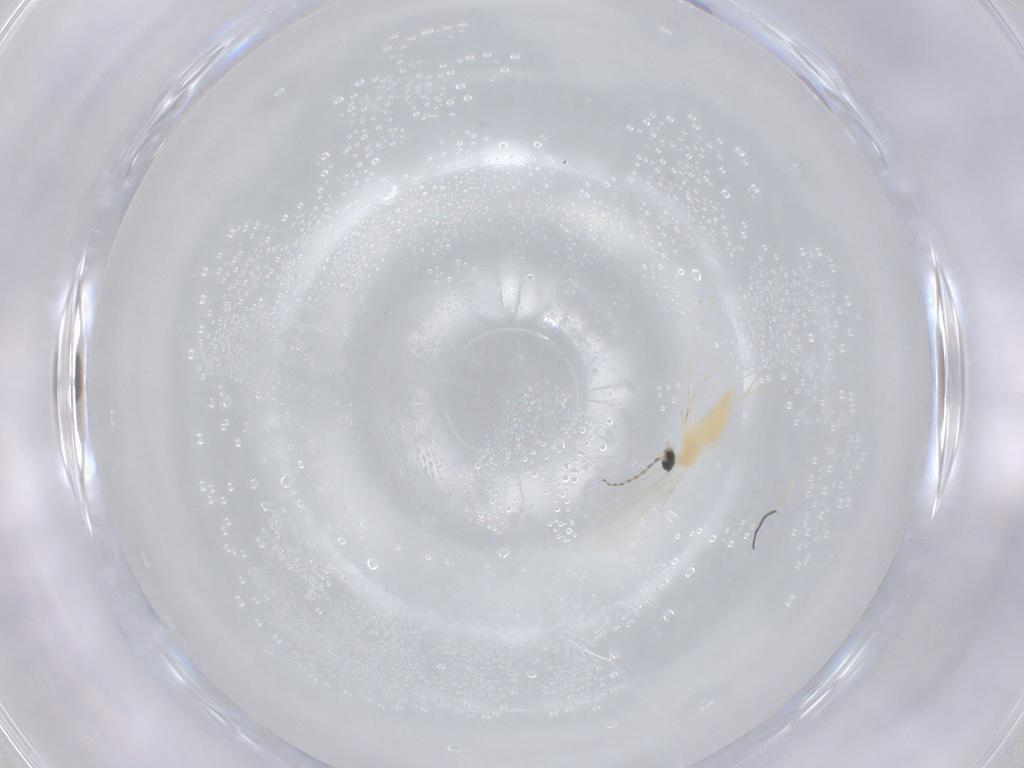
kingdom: Animalia
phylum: Arthropoda
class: Insecta
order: Diptera
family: Cecidomyiidae
